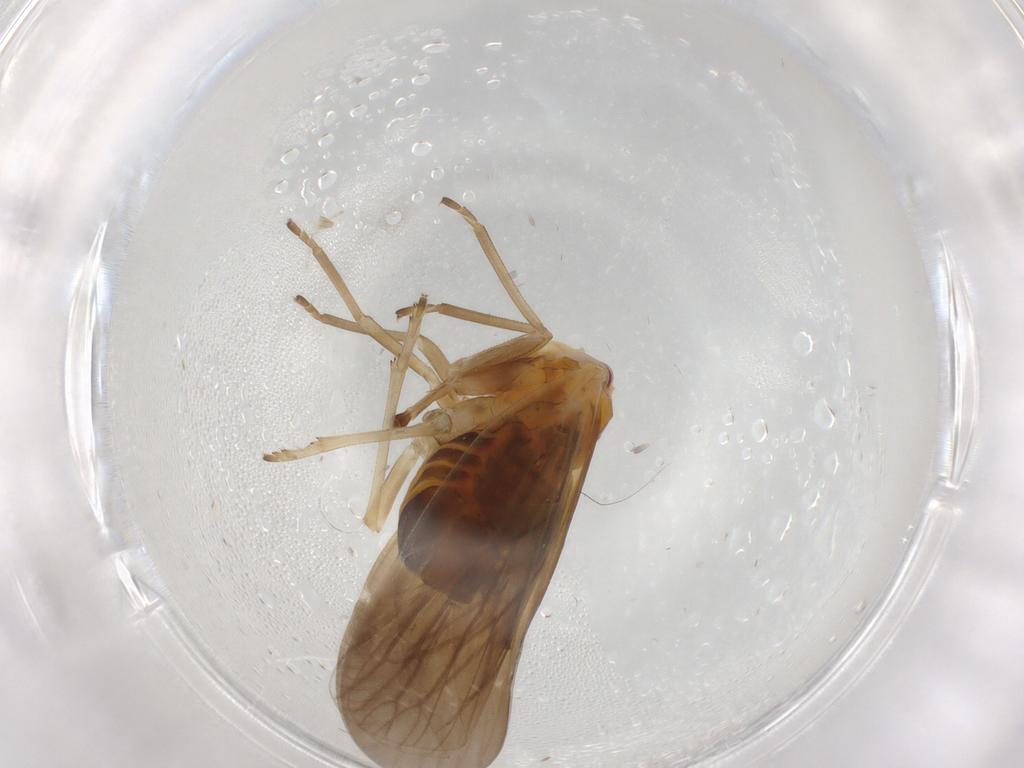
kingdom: Animalia
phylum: Arthropoda
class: Insecta
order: Hemiptera
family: Derbidae
